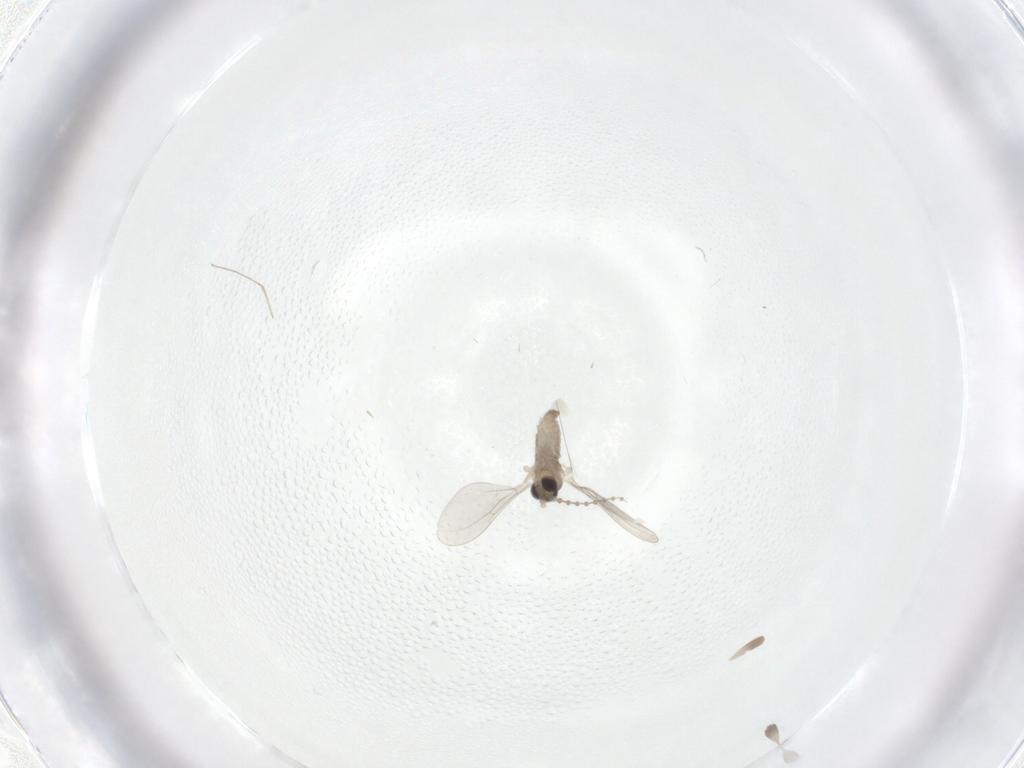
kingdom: Animalia
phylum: Arthropoda
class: Insecta
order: Diptera
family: Cecidomyiidae
